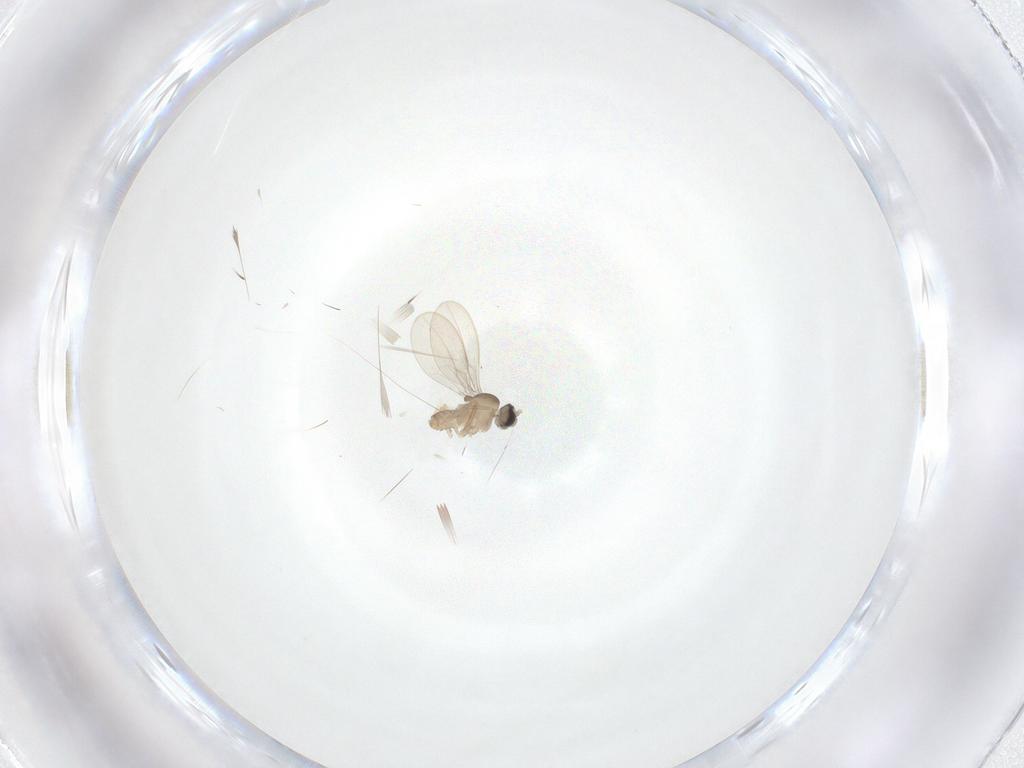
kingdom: Animalia
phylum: Arthropoda
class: Insecta
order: Diptera
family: Cecidomyiidae
